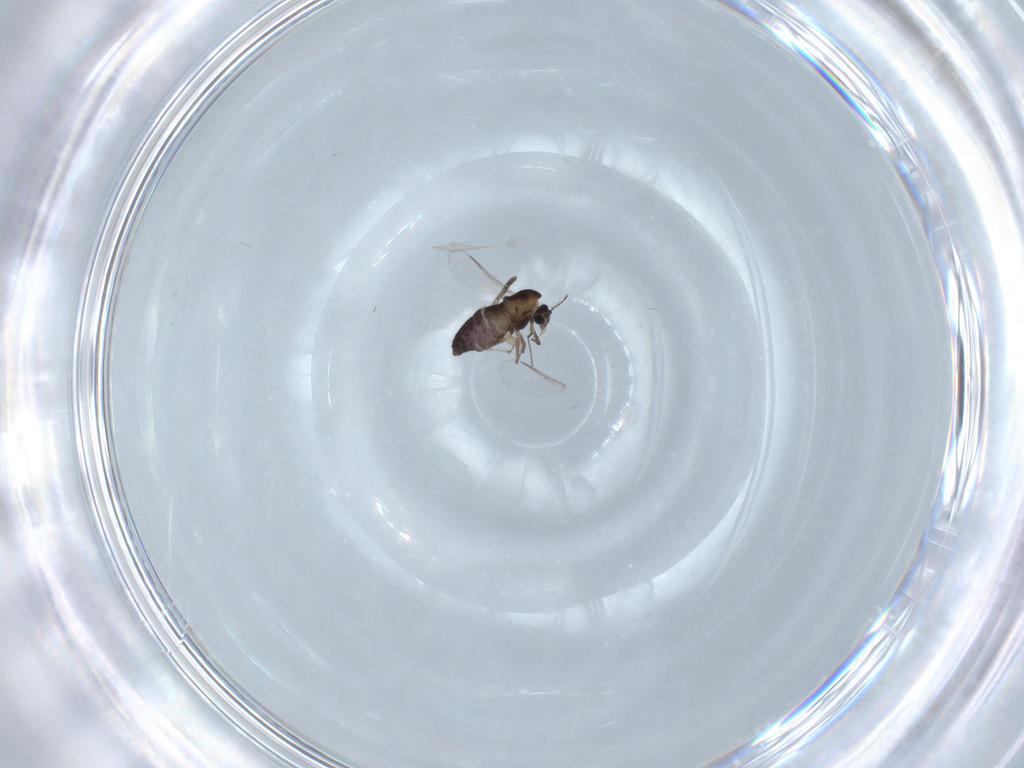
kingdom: Animalia
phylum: Arthropoda
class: Insecta
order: Diptera
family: Chironomidae
